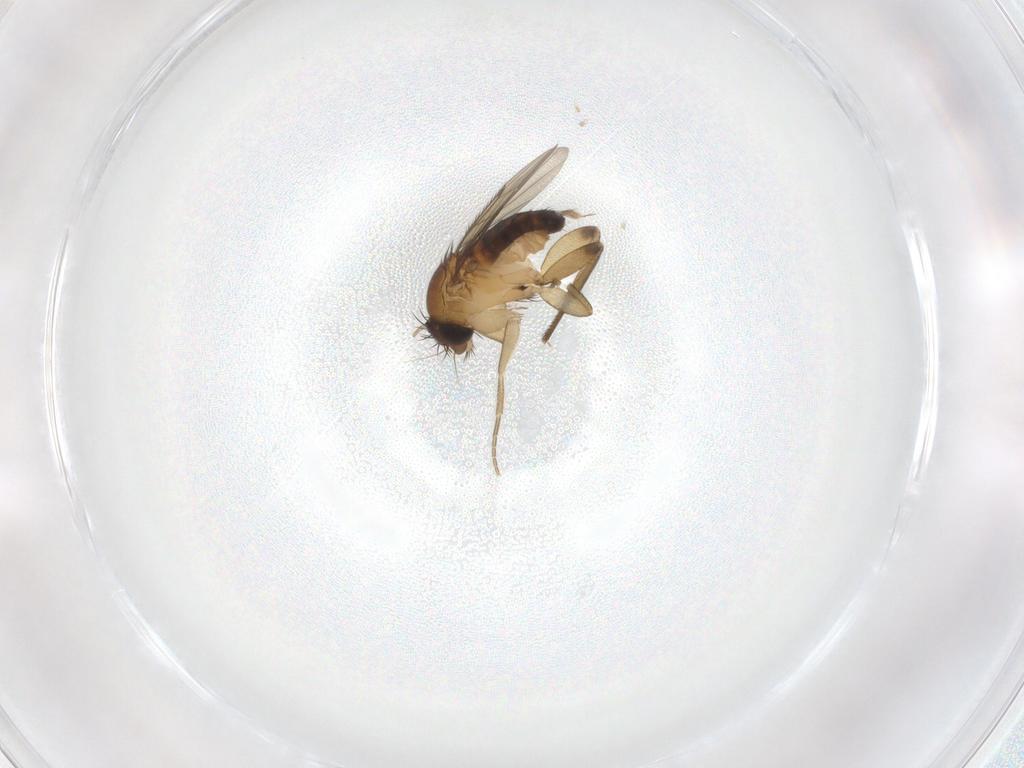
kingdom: Animalia
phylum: Arthropoda
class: Insecta
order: Diptera
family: Phoridae
